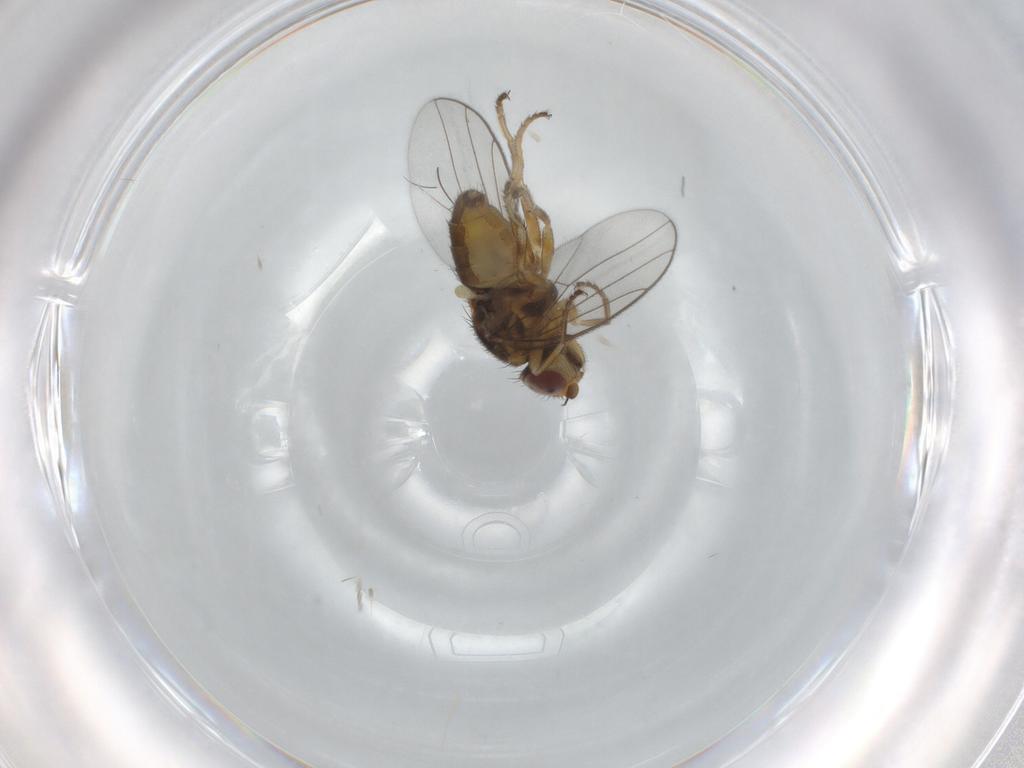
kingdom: Animalia
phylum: Arthropoda
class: Insecta
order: Diptera
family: Chloropidae
